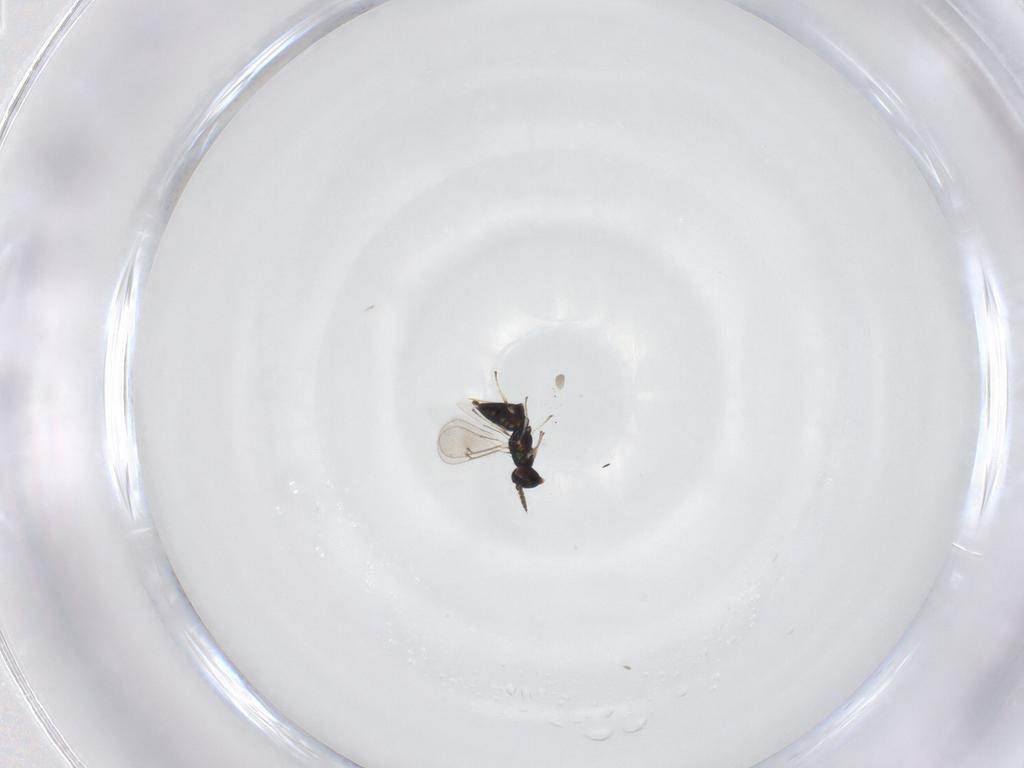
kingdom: Animalia
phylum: Arthropoda
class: Insecta
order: Hymenoptera
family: Eulophidae
